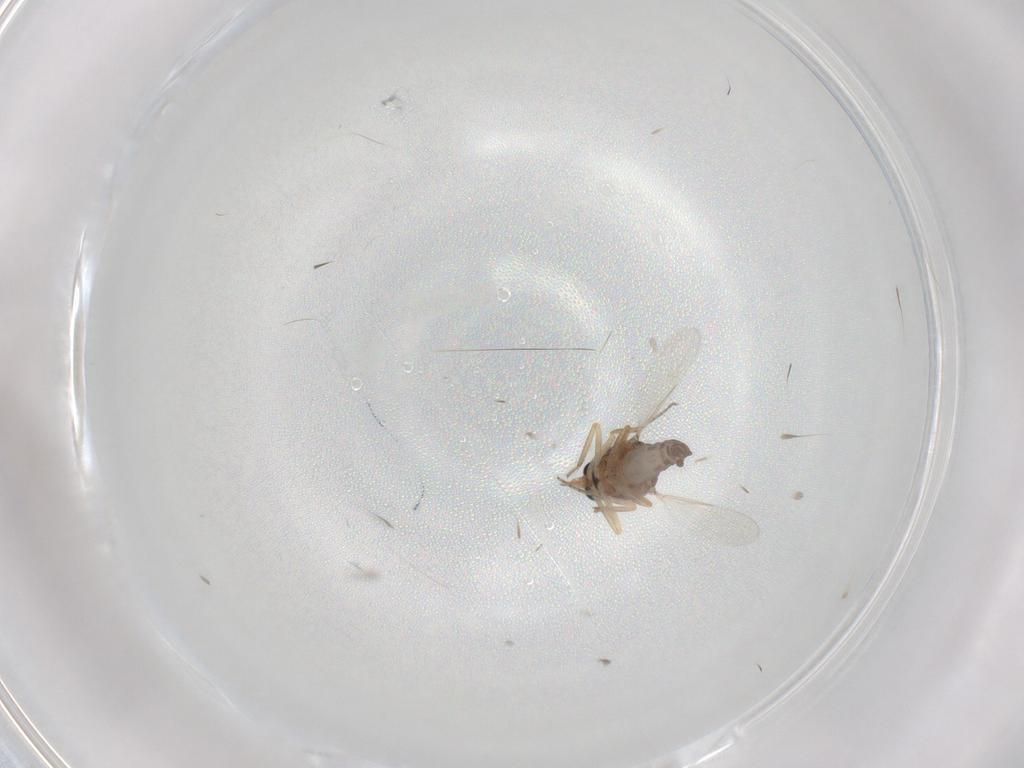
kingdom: Animalia
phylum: Arthropoda
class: Insecta
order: Diptera
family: Ceratopogonidae
